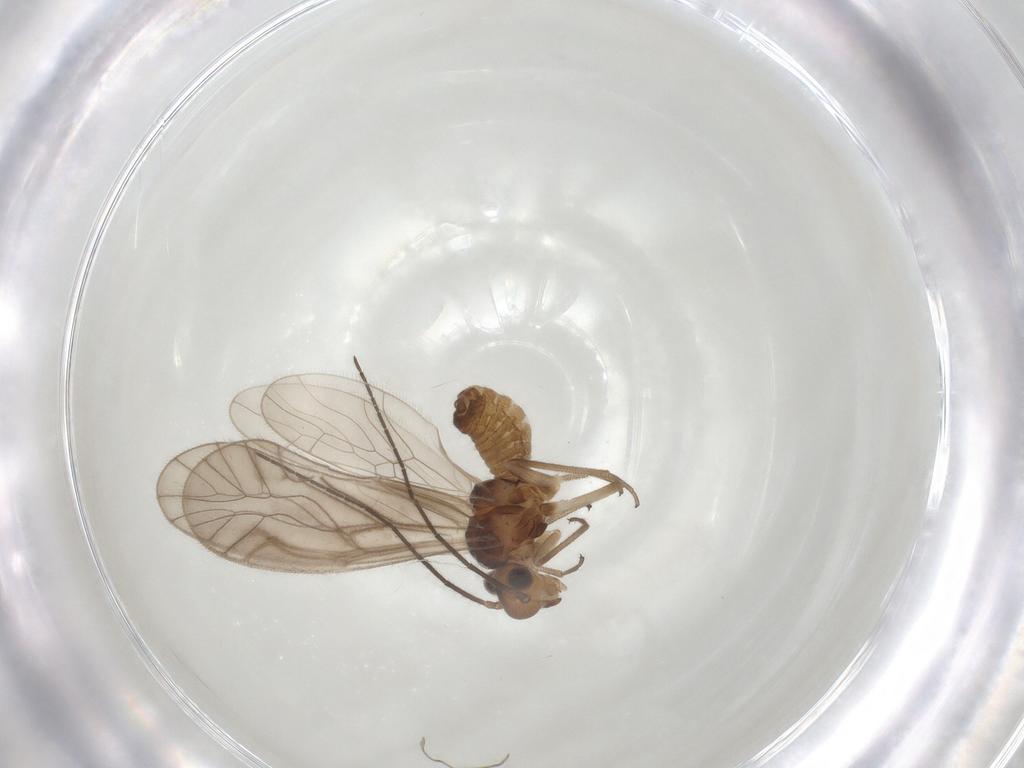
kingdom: Animalia
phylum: Arthropoda
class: Insecta
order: Psocodea
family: Philotarsidae
